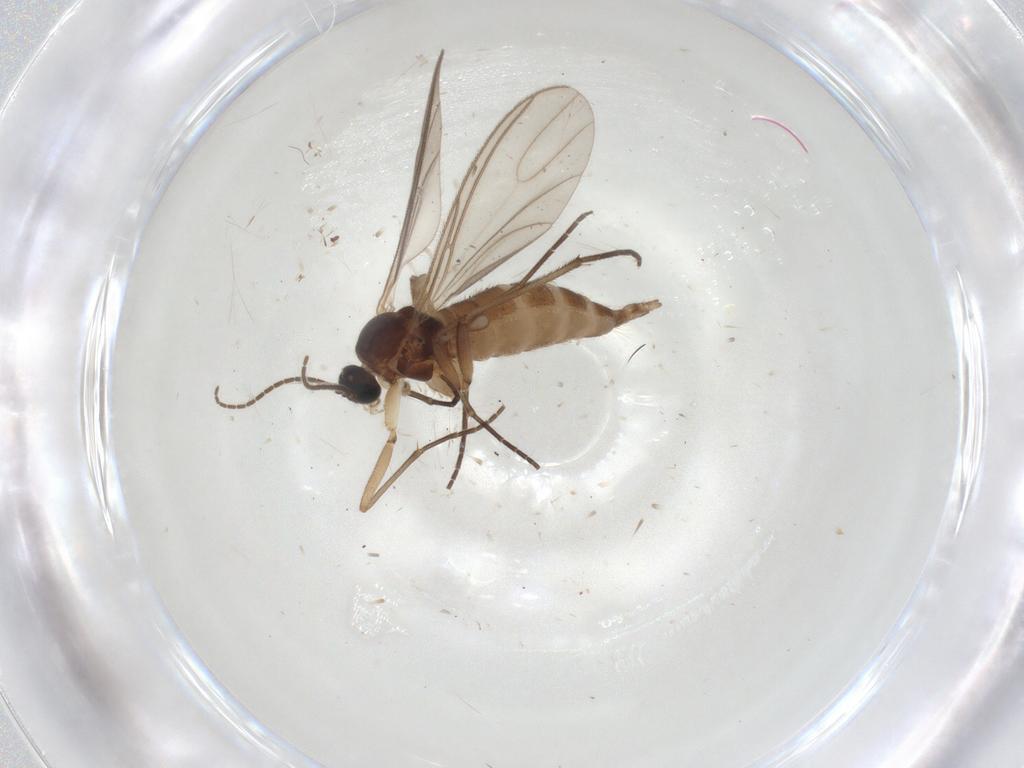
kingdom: Animalia
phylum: Arthropoda
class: Insecta
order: Diptera
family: Sciaridae
